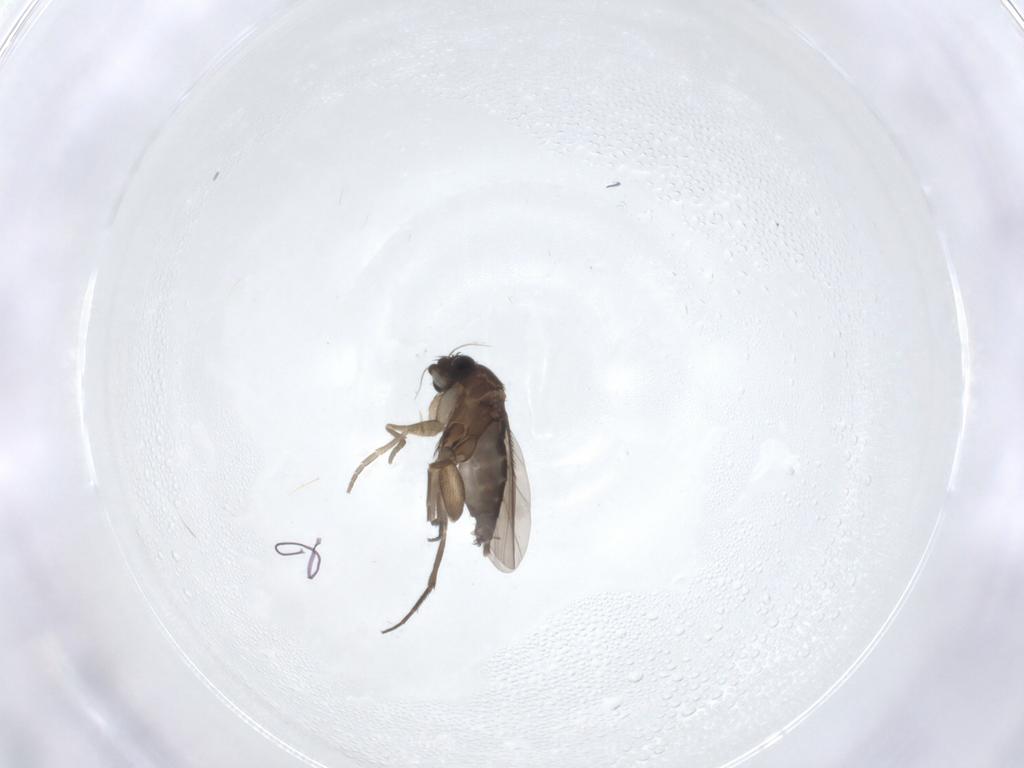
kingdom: Animalia
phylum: Arthropoda
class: Insecta
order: Diptera
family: Phoridae
